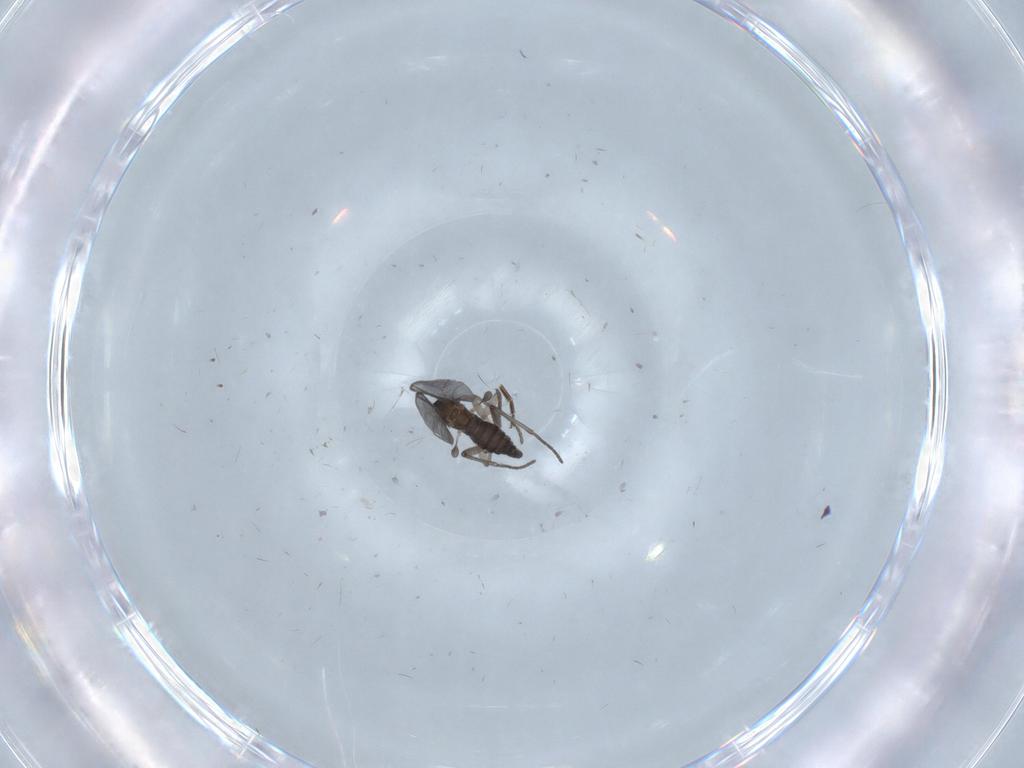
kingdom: Animalia
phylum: Arthropoda
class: Insecta
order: Diptera
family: Phoridae
